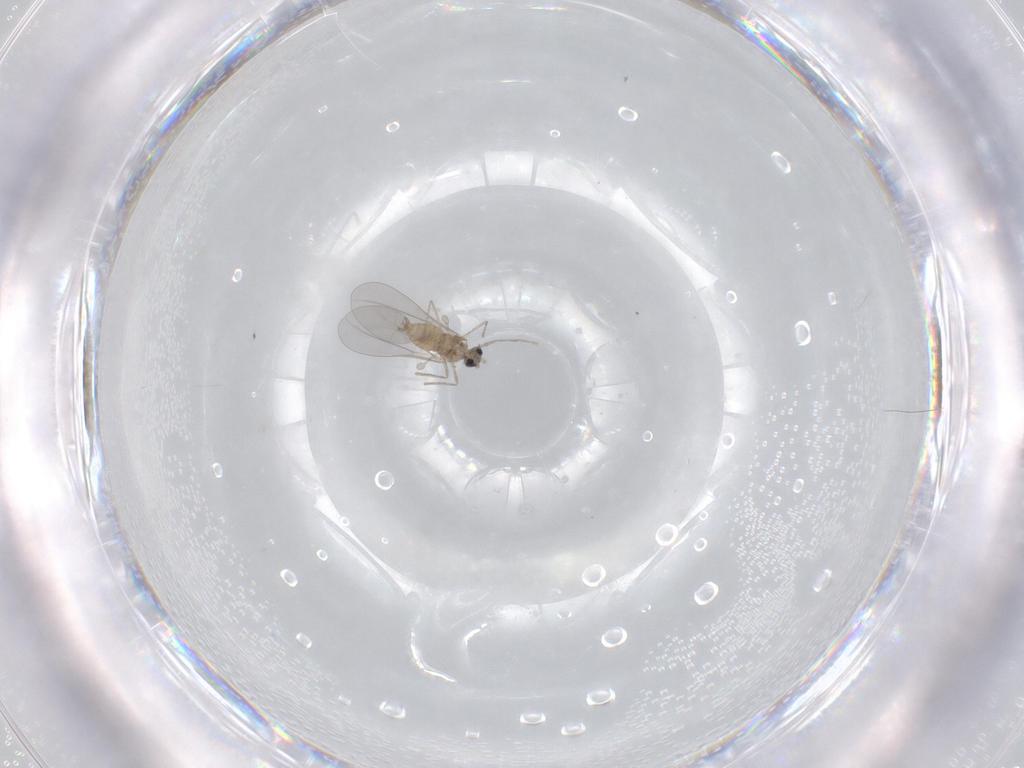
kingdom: Animalia
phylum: Arthropoda
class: Insecta
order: Diptera
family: Cecidomyiidae
